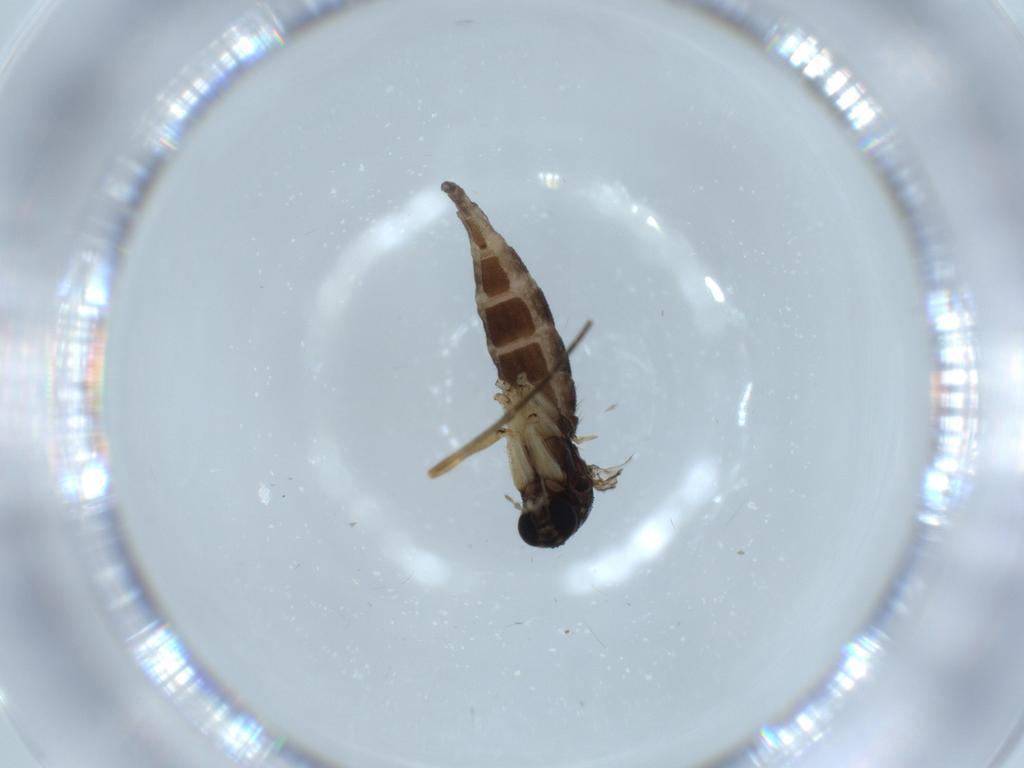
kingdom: Animalia
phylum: Arthropoda
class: Insecta
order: Diptera
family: Sciaridae
